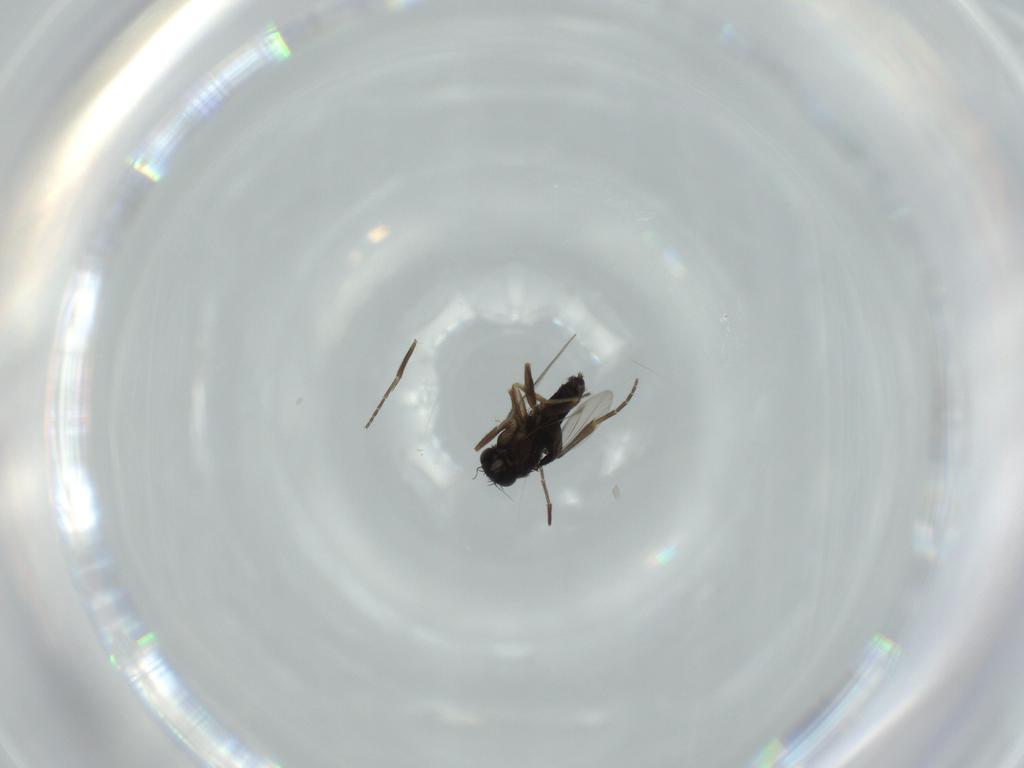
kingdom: Animalia
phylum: Arthropoda
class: Insecta
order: Diptera
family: Phoridae
